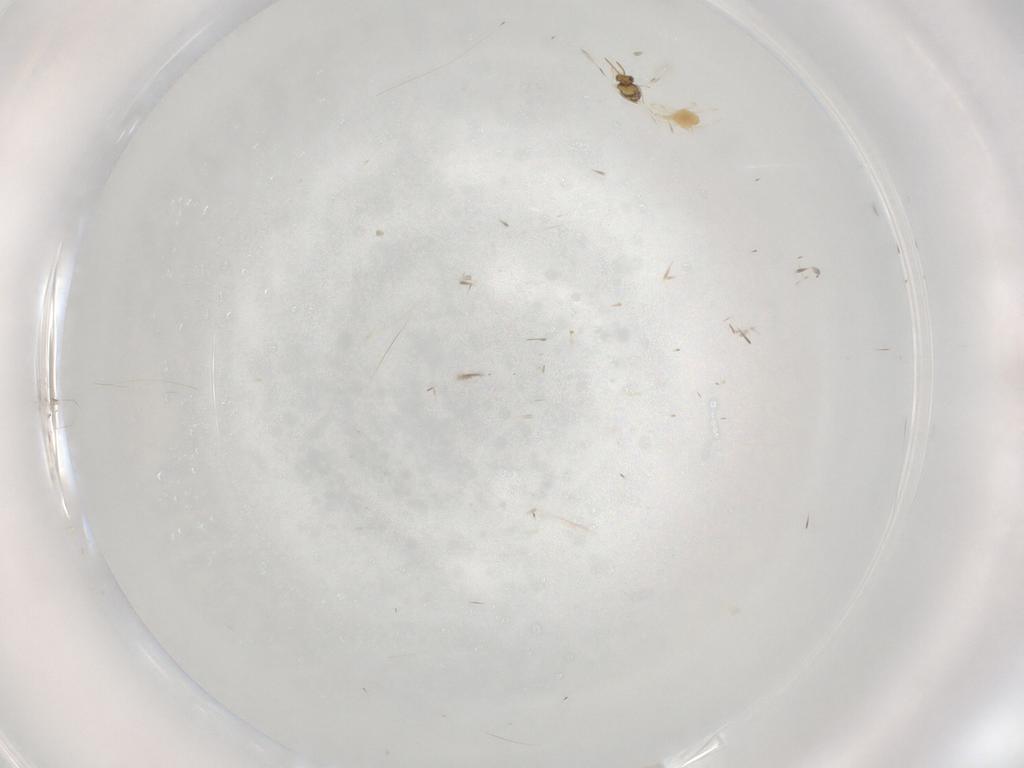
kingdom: Animalia
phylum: Arthropoda
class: Insecta
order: Hymenoptera
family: Aphelinidae
